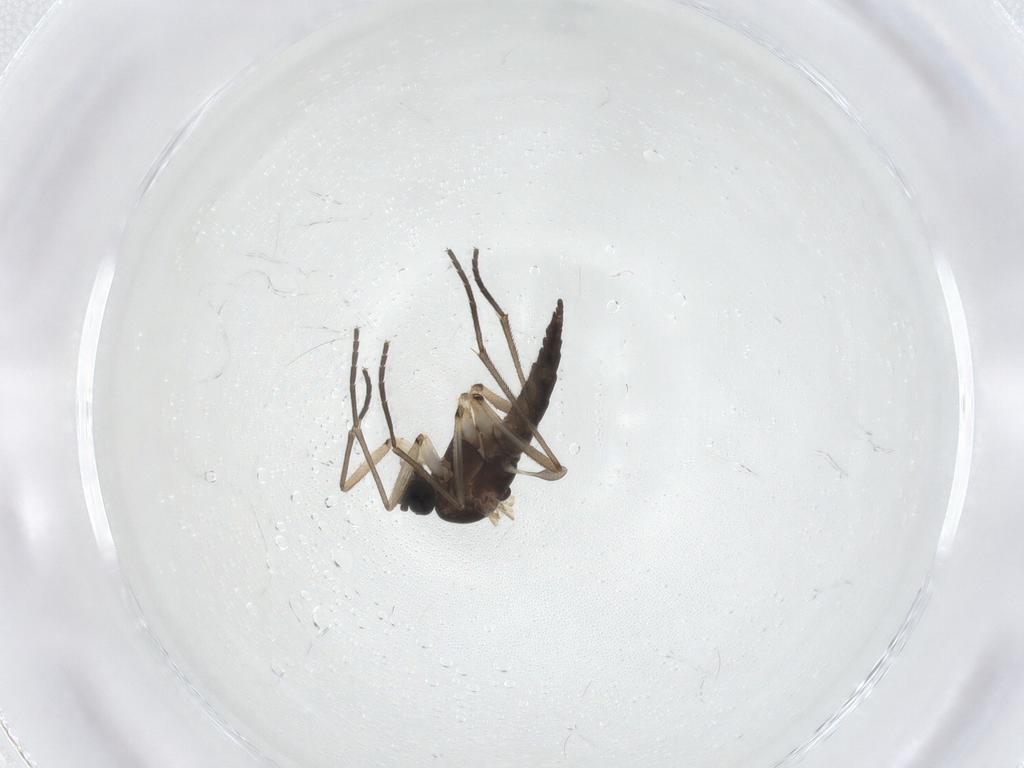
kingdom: Animalia
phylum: Arthropoda
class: Insecta
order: Diptera
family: Sciaridae
